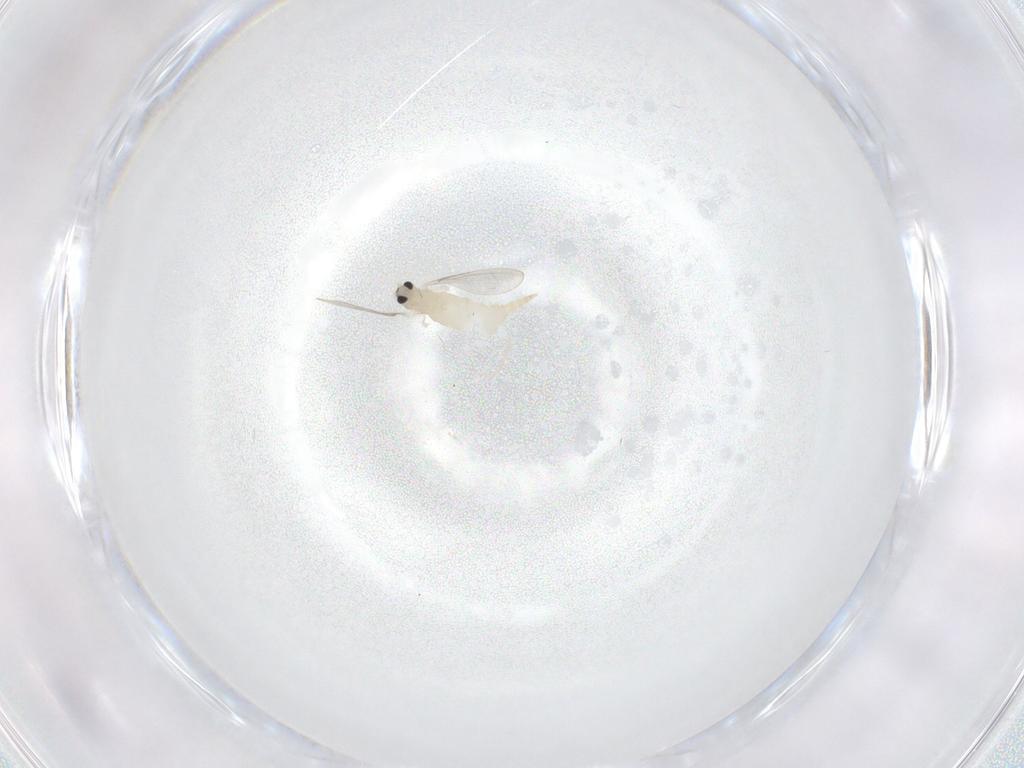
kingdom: Animalia
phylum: Arthropoda
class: Insecta
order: Diptera
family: Cecidomyiidae
